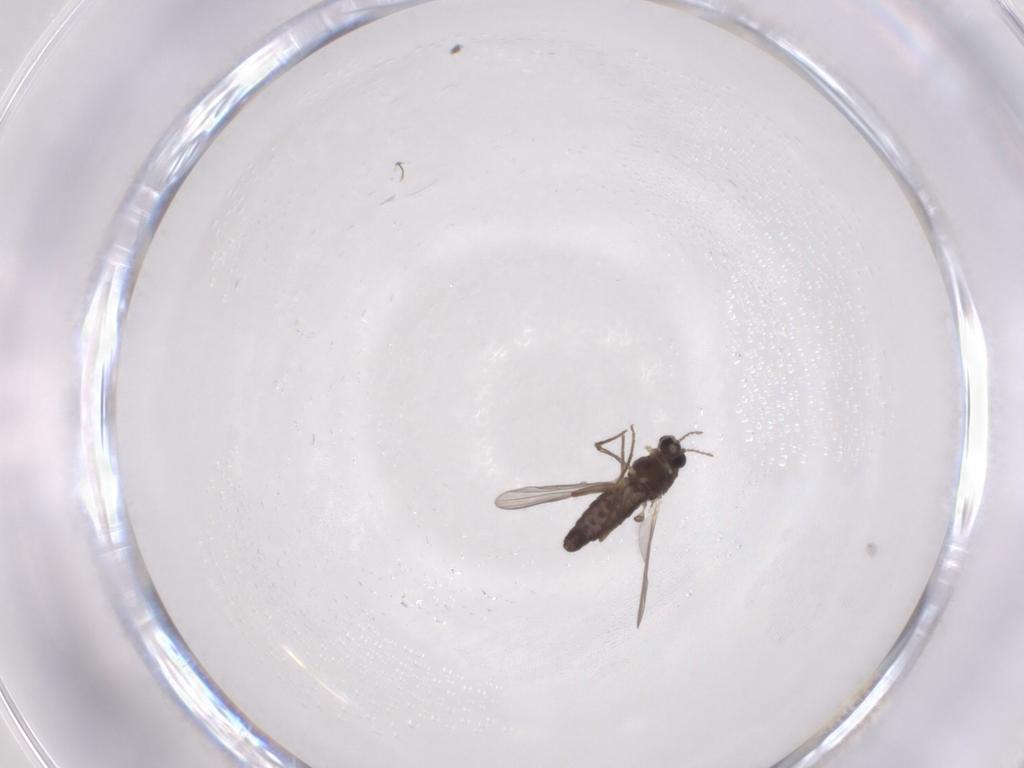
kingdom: Animalia
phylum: Arthropoda
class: Insecta
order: Diptera
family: Chironomidae
